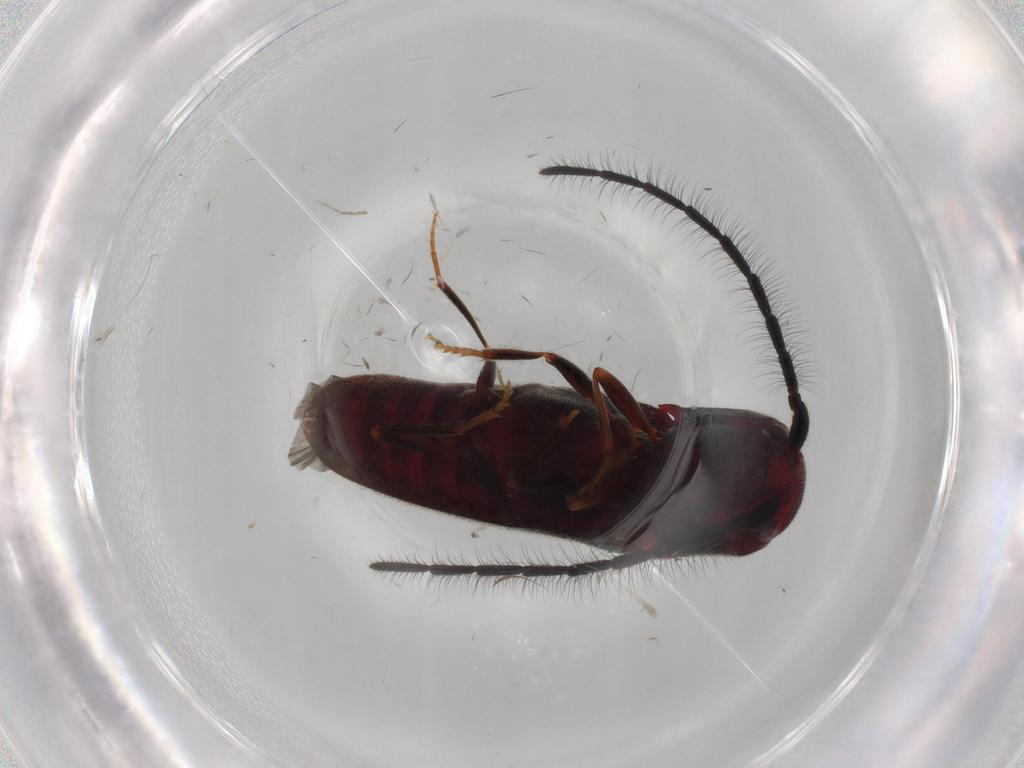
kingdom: Animalia
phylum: Arthropoda
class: Insecta
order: Coleoptera
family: Eucnemidae
